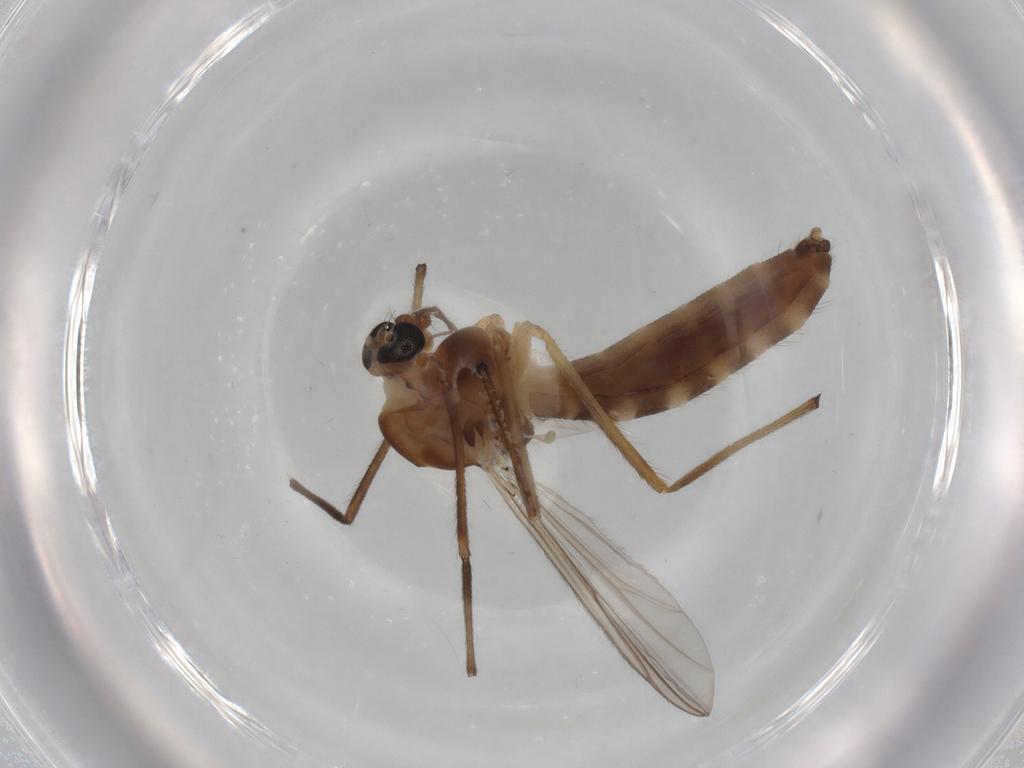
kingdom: Animalia
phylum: Arthropoda
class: Insecta
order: Diptera
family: Chironomidae
